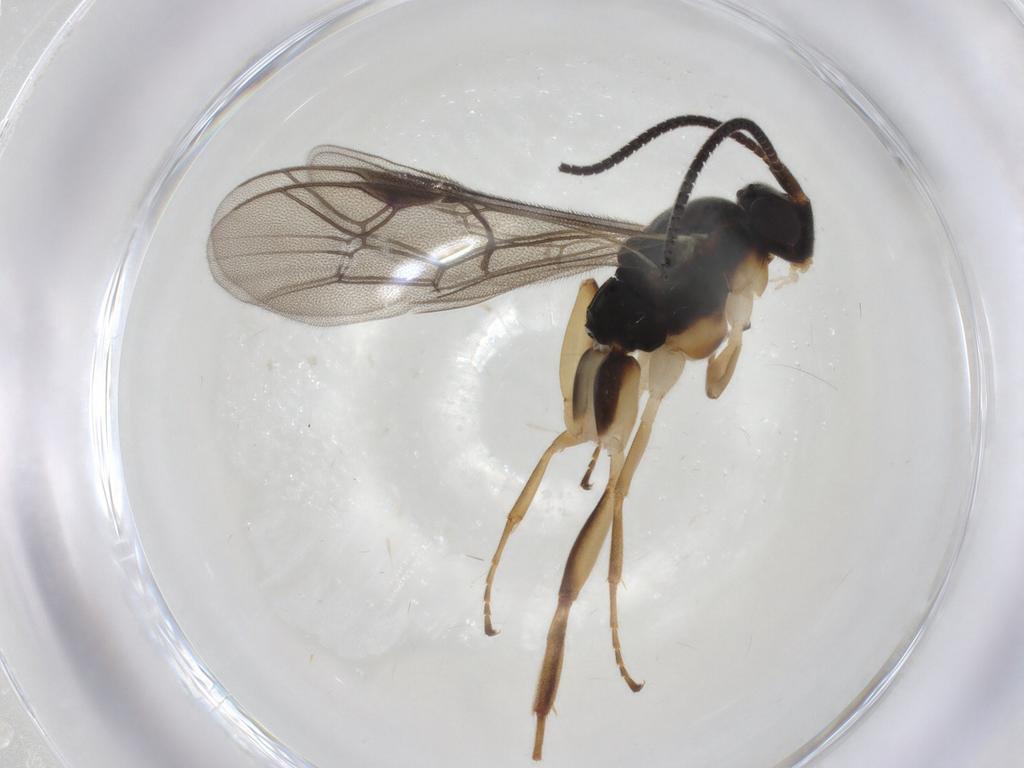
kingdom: Animalia
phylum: Arthropoda
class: Insecta
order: Hymenoptera
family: Ichneumonidae
